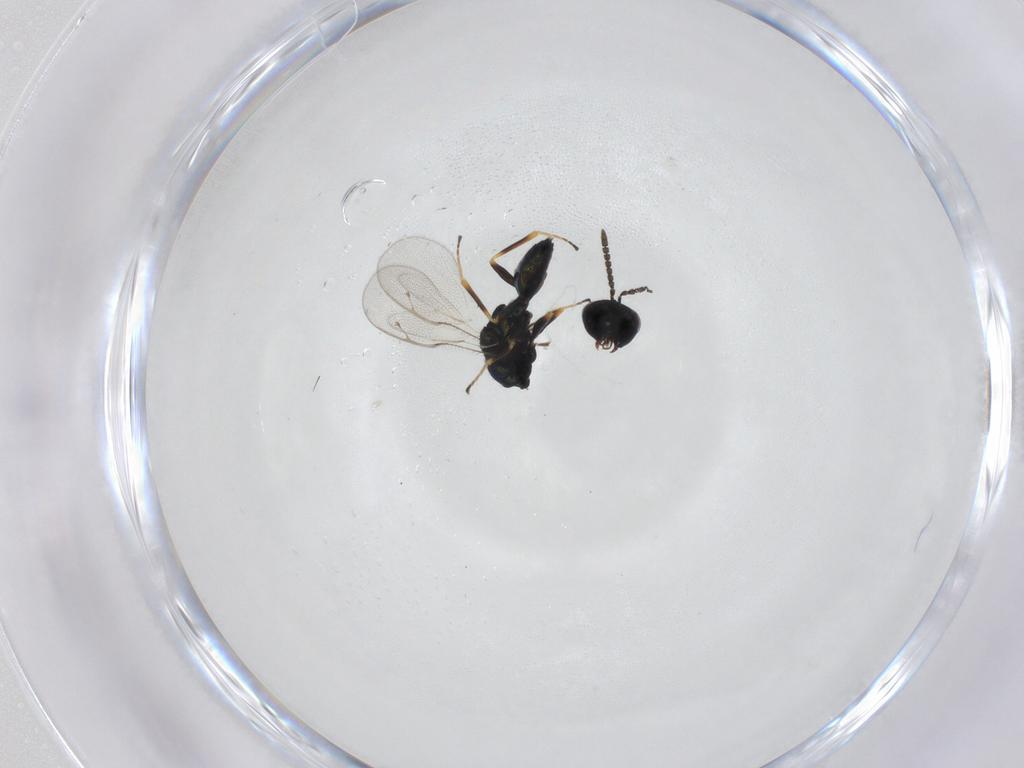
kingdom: Animalia
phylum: Arthropoda
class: Insecta
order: Hymenoptera
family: Pteromalidae
